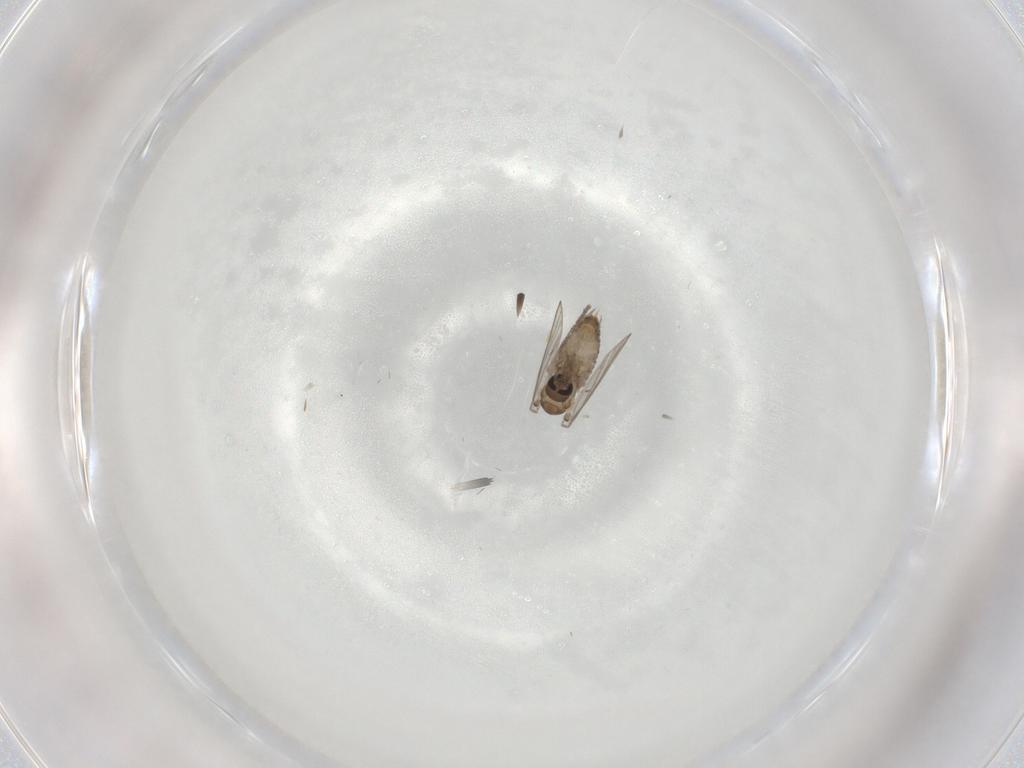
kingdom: Animalia
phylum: Arthropoda
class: Insecta
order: Diptera
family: Psychodidae
